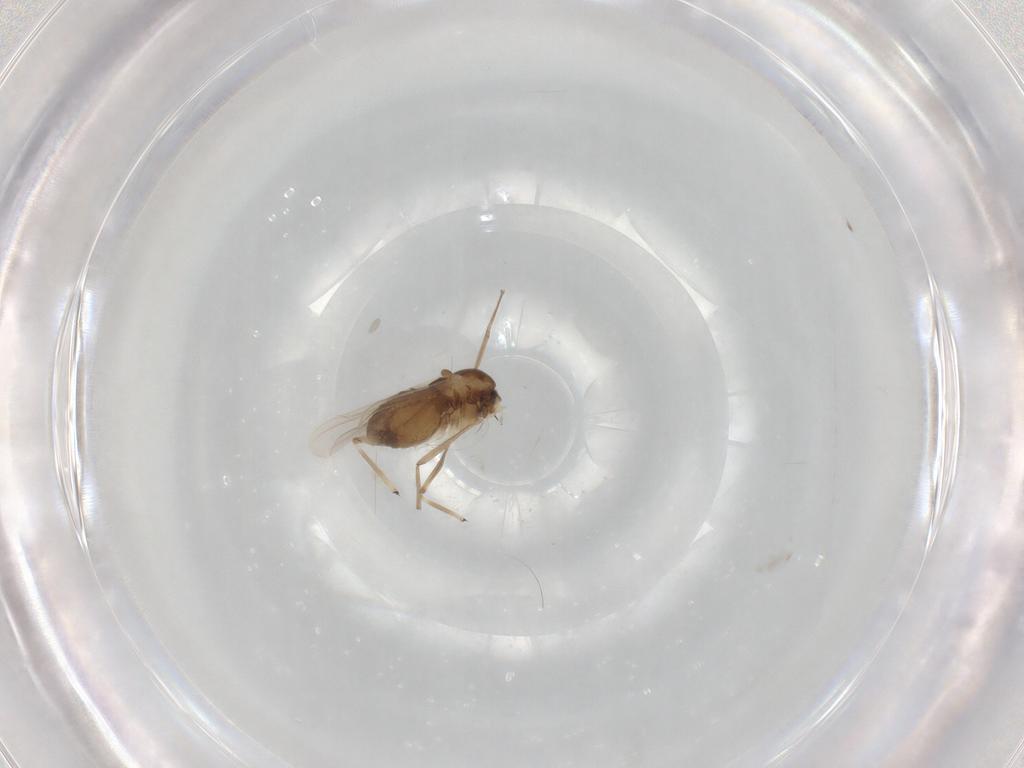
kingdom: Animalia
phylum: Arthropoda
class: Insecta
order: Diptera
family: Chironomidae
